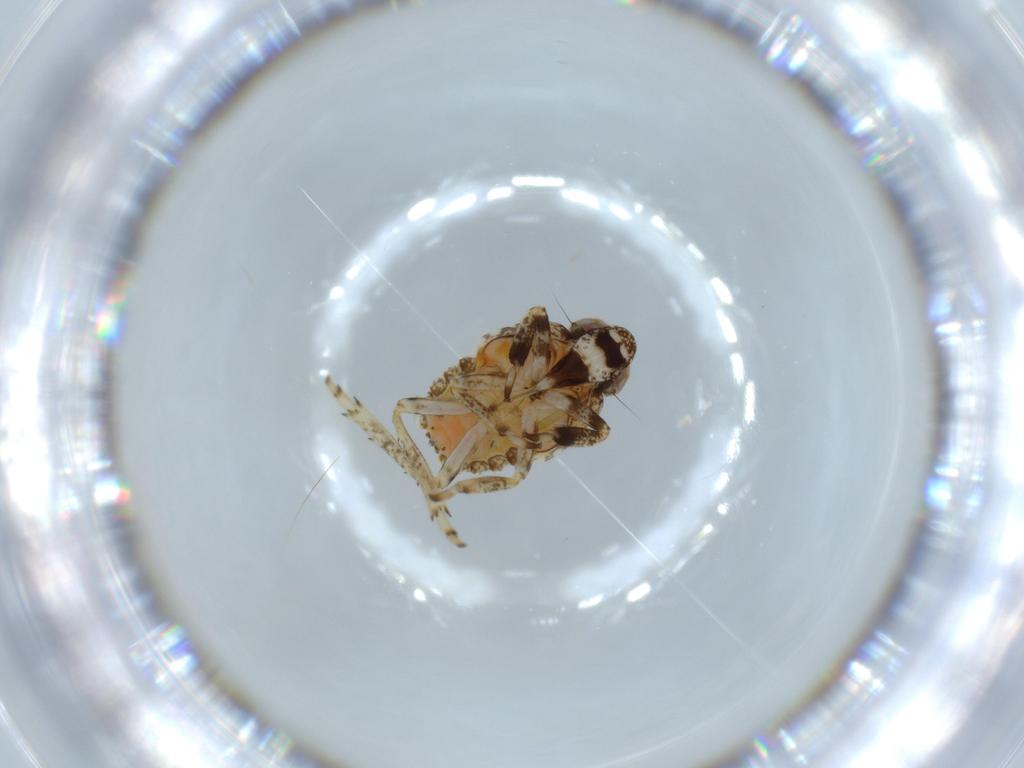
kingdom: Animalia
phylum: Arthropoda
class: Insecta
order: Hemiptera
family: Issidae
